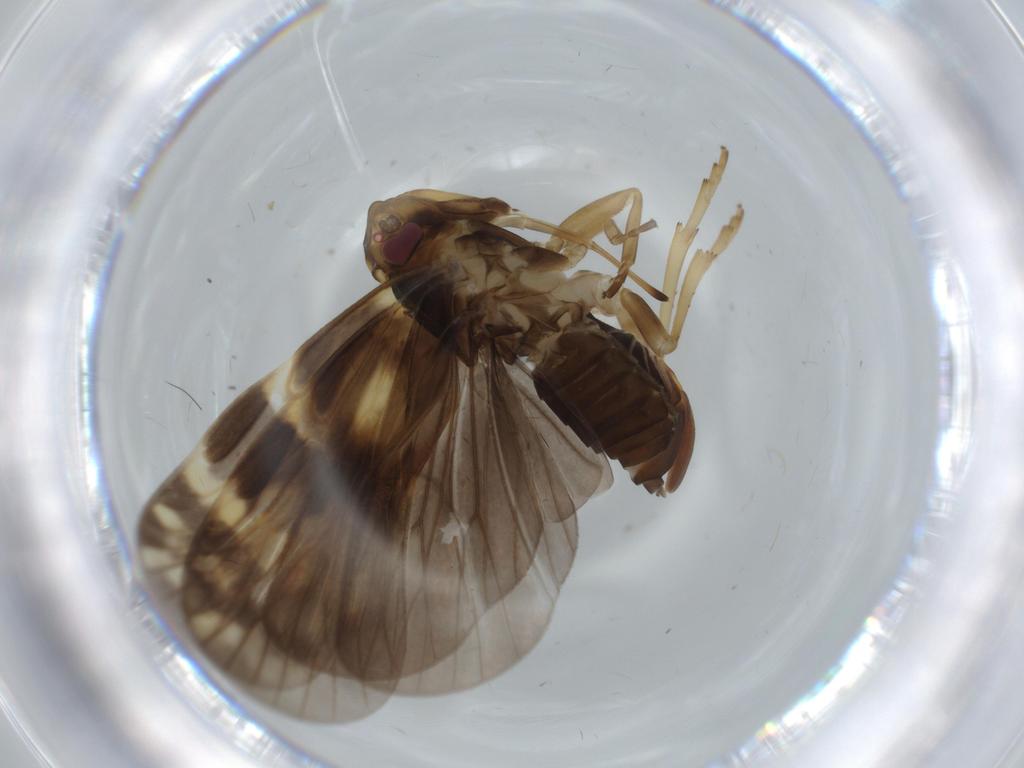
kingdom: Animalia
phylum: Arthropoda
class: Insecta
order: Hemiptera
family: Cixiidae
